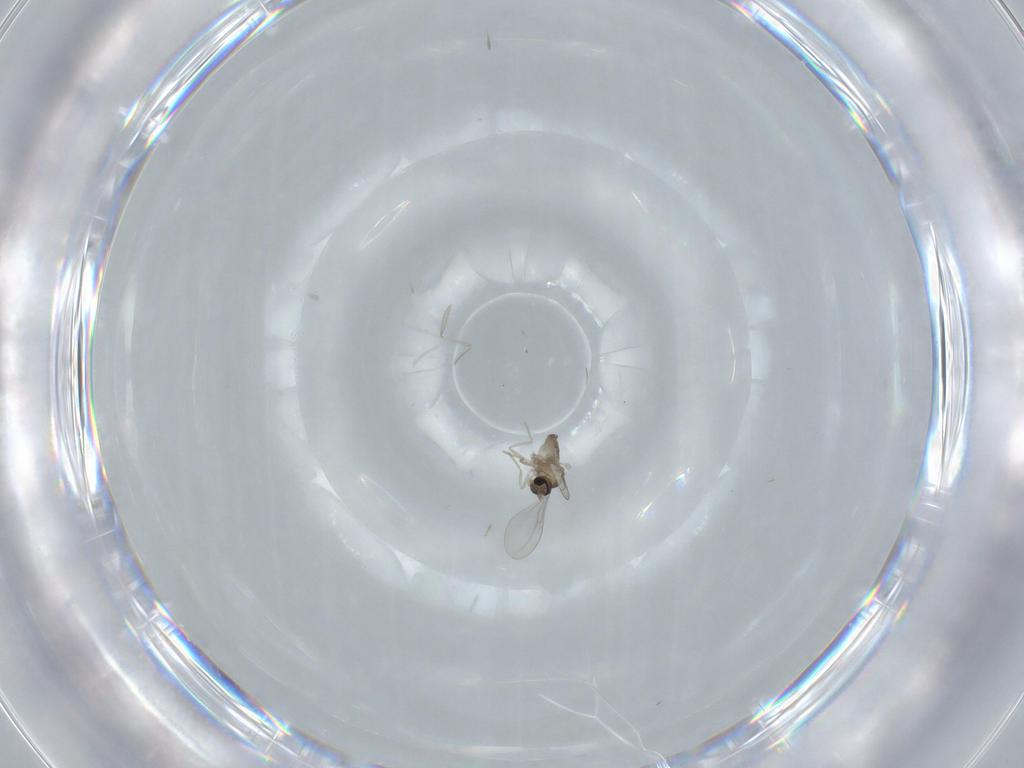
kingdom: Animalia
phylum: Arthropoda
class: Insecta
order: Diptera
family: Cecidomyiidae
